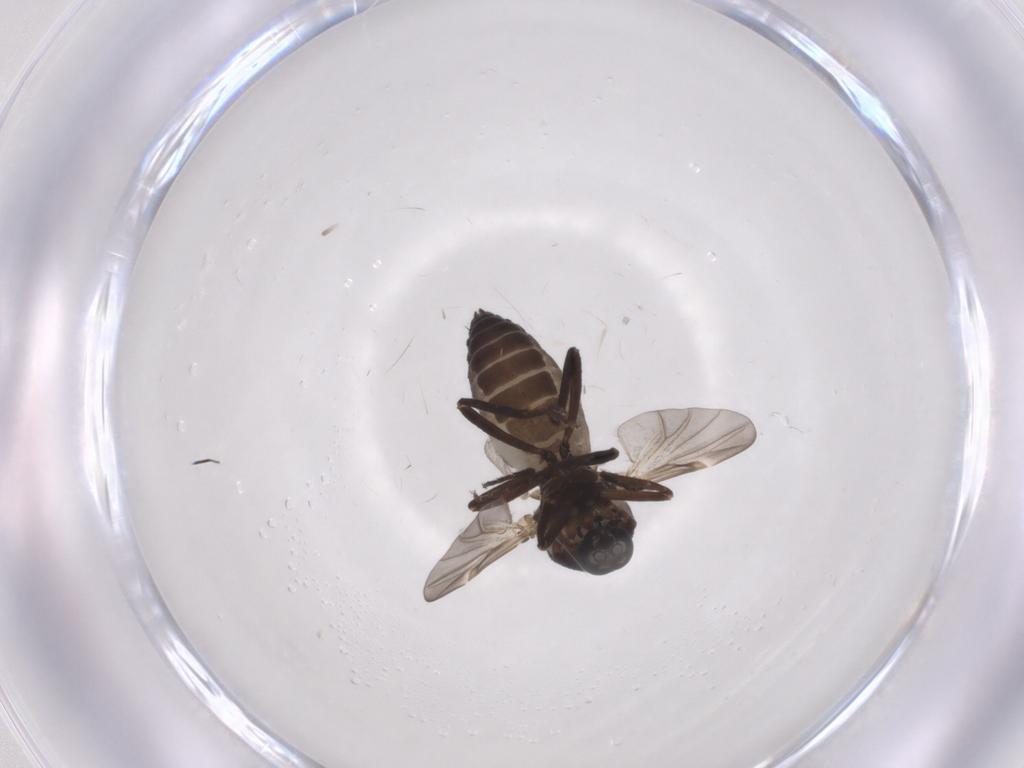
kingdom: Animalia
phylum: Arthropoda
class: Insecta
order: Diptera
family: Ceratopogonidae
